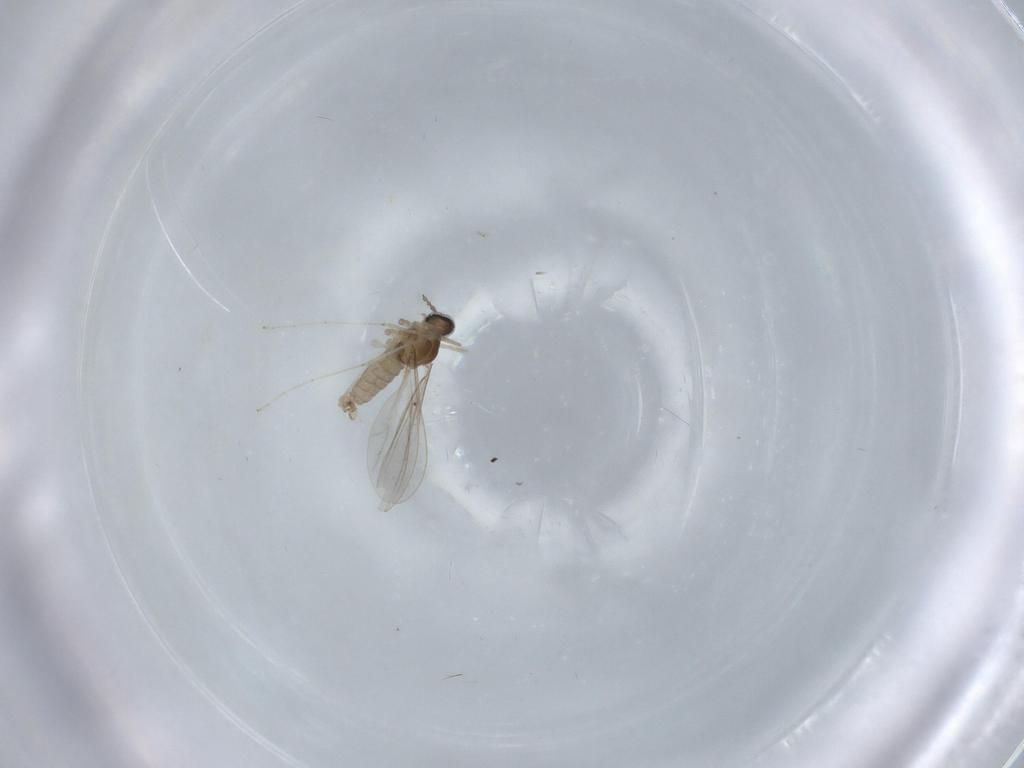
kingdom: Animalia
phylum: Arthropoda
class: Insecta
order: Diptera
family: Cecidomyiidae
